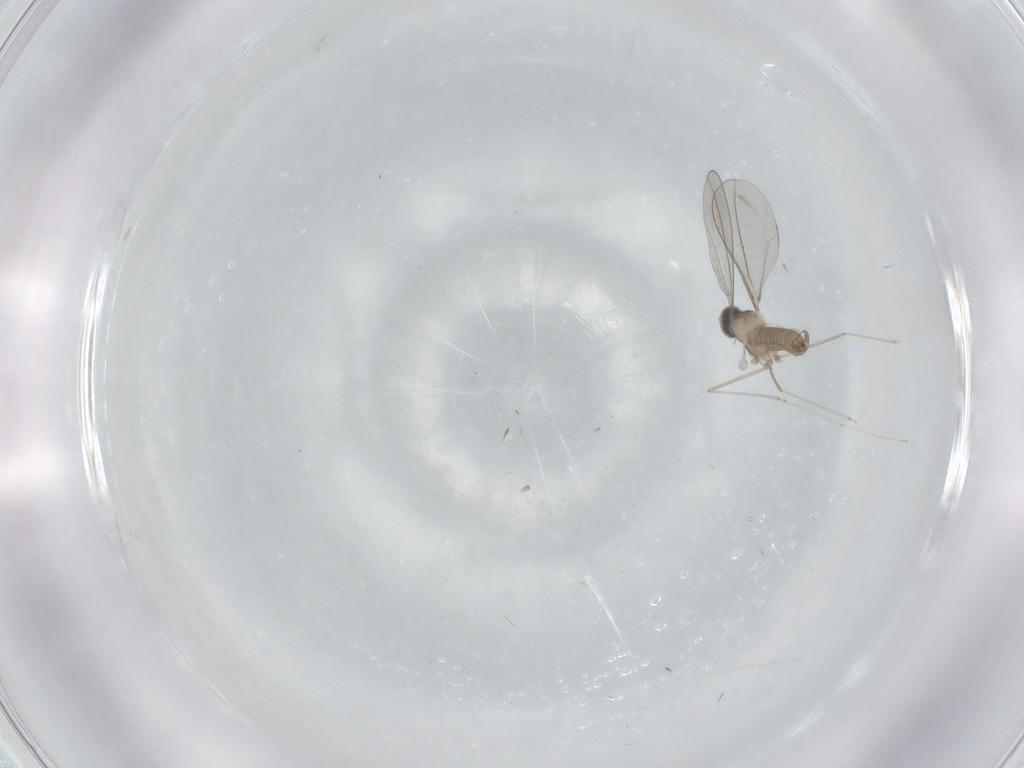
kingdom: Animalia
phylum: Arthropoda
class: Insecta
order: Diptera
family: Cecidomyiidae
